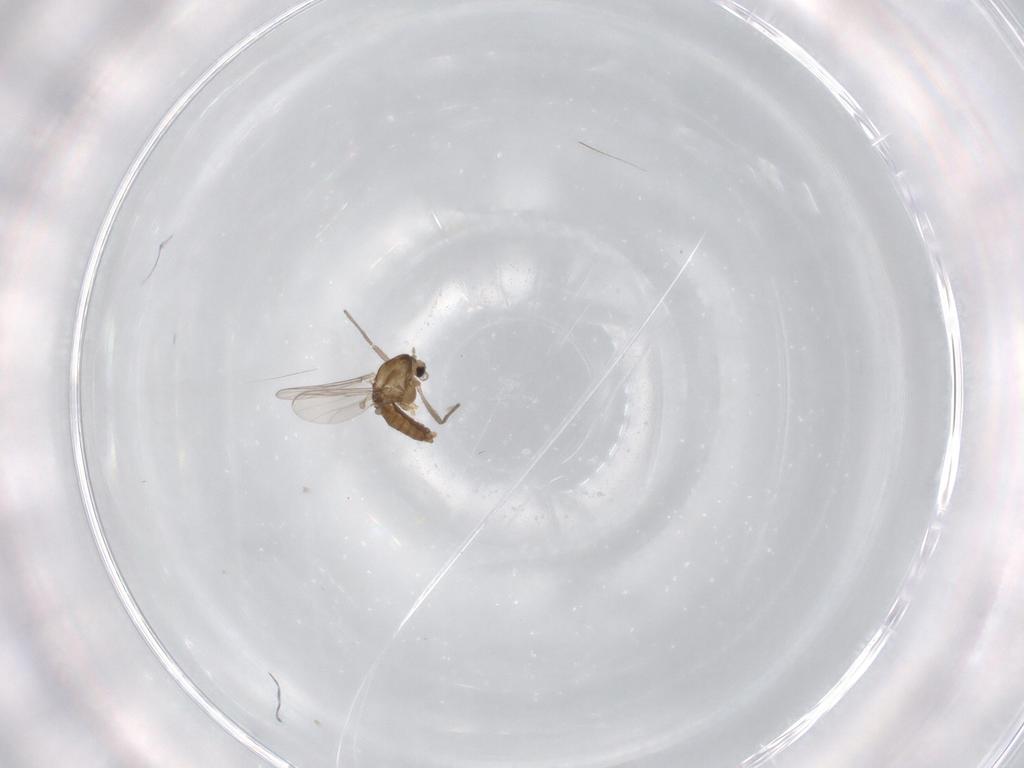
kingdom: Animalia
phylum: Arthropoda
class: Insecta
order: Diptera
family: Chironomidae
